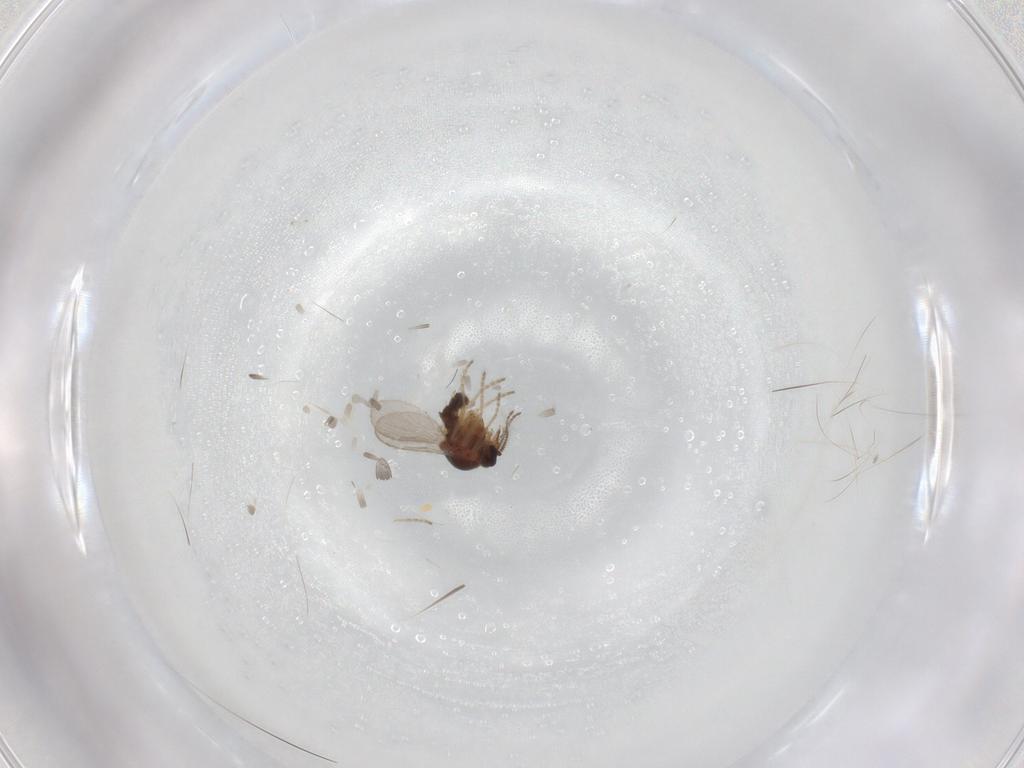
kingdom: Animalia
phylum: Arthropoda
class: Insecta
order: Diptera
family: Ceratopogonidae
